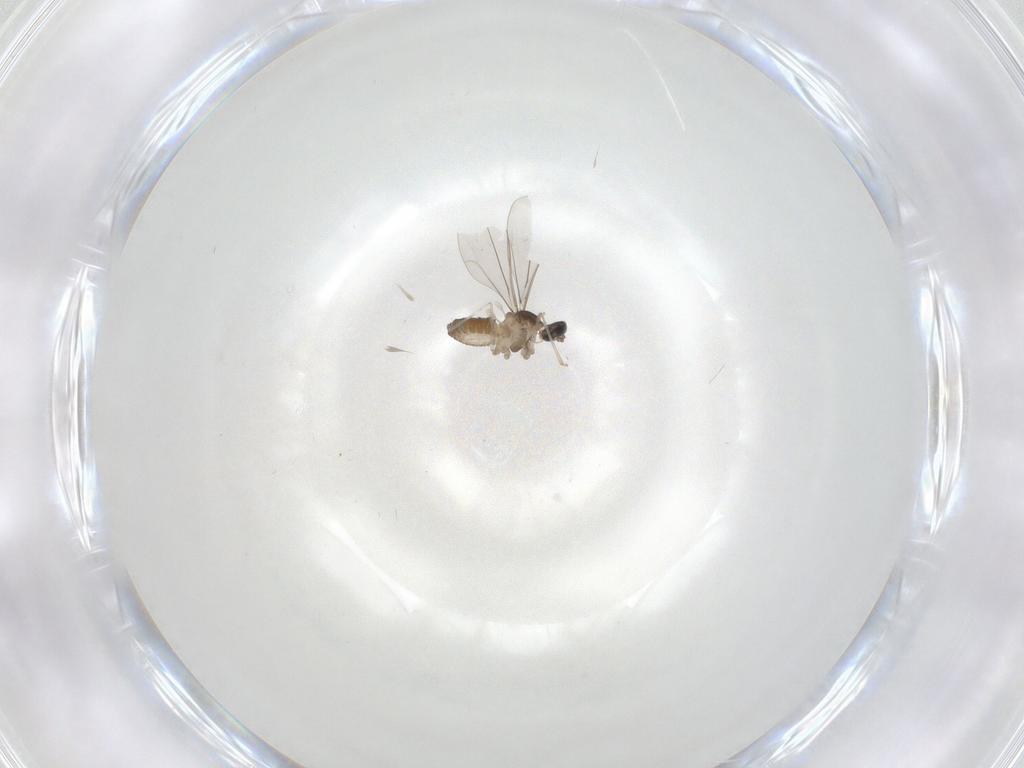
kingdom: Animalia
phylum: Arthropoda
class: Insecta
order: Diptera
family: Cecidomyiidae
